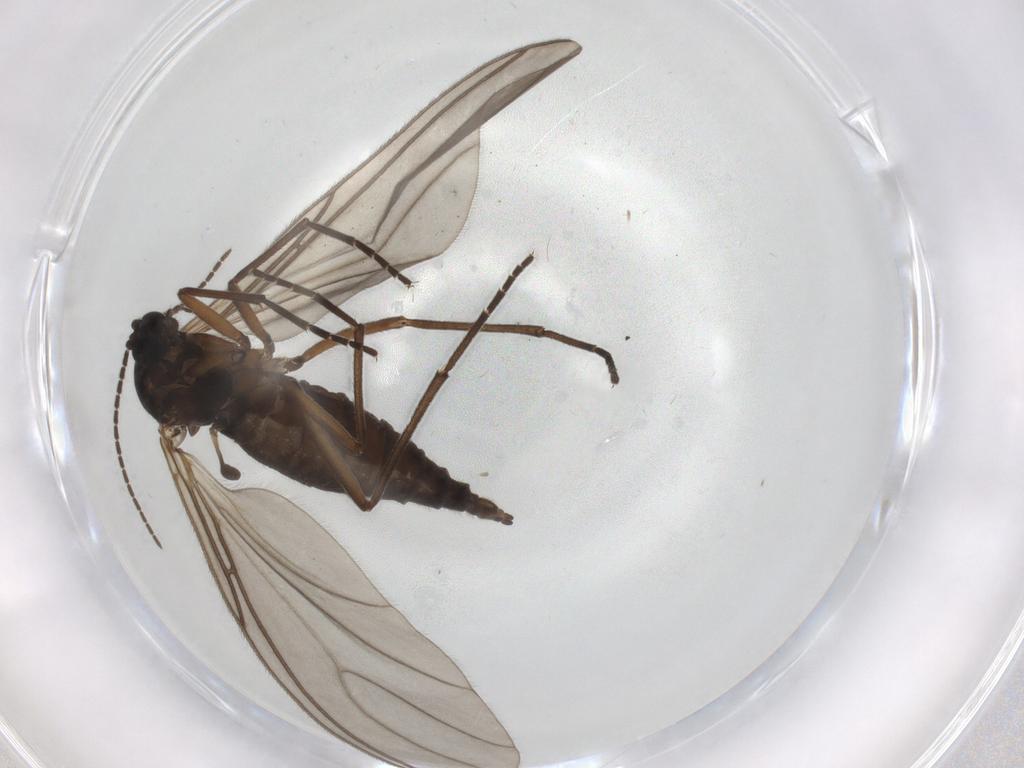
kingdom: Animalia
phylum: Arthropoda
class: Insecta
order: Diptera
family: Sciaridae
